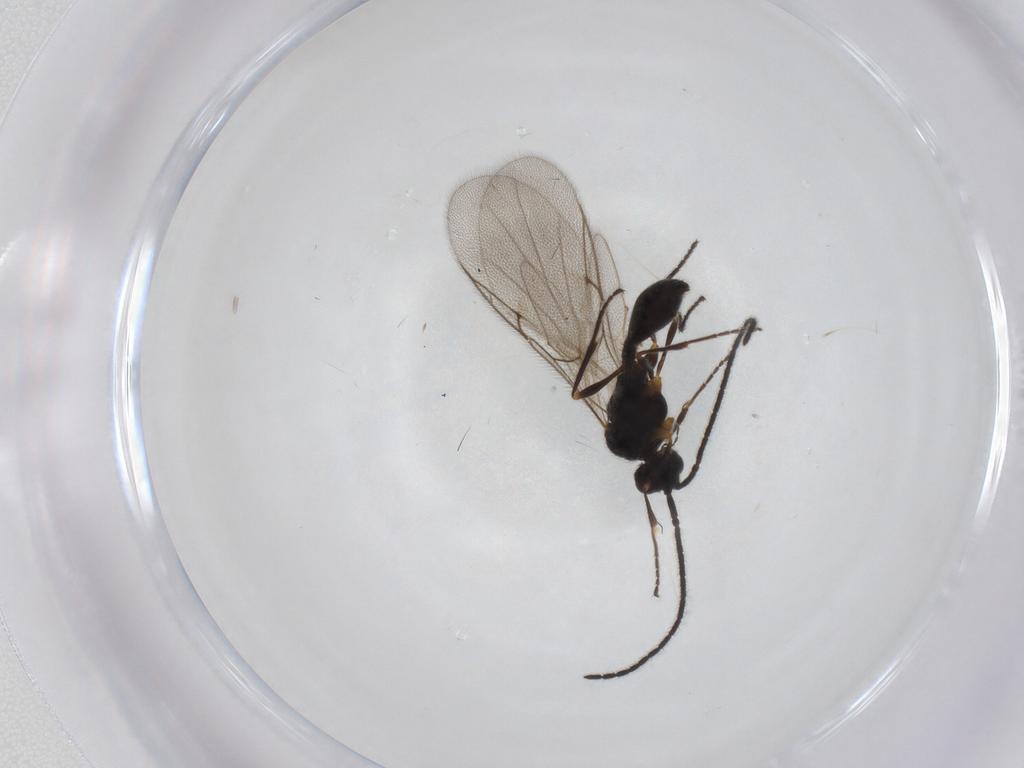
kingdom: Animalia
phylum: Arthropoda
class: Insecta
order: Hymenoptera
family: Diapriidae
